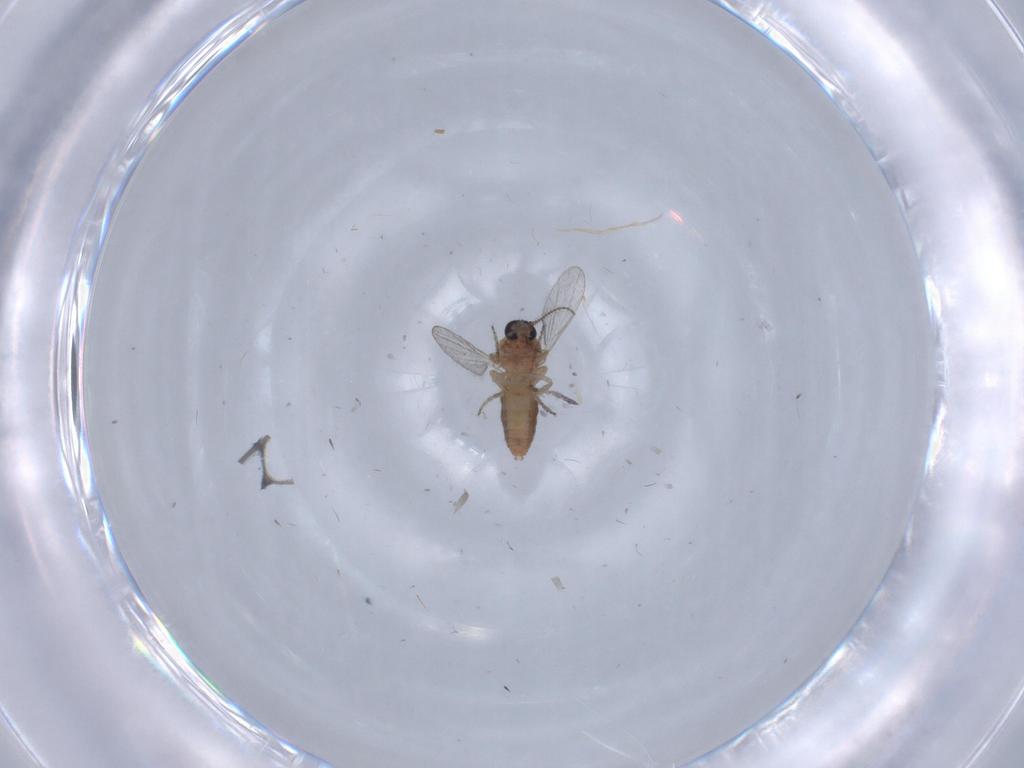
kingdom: Animalia
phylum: Arthropoda
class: Insecta
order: Diptera
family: Ceratopogonidae
